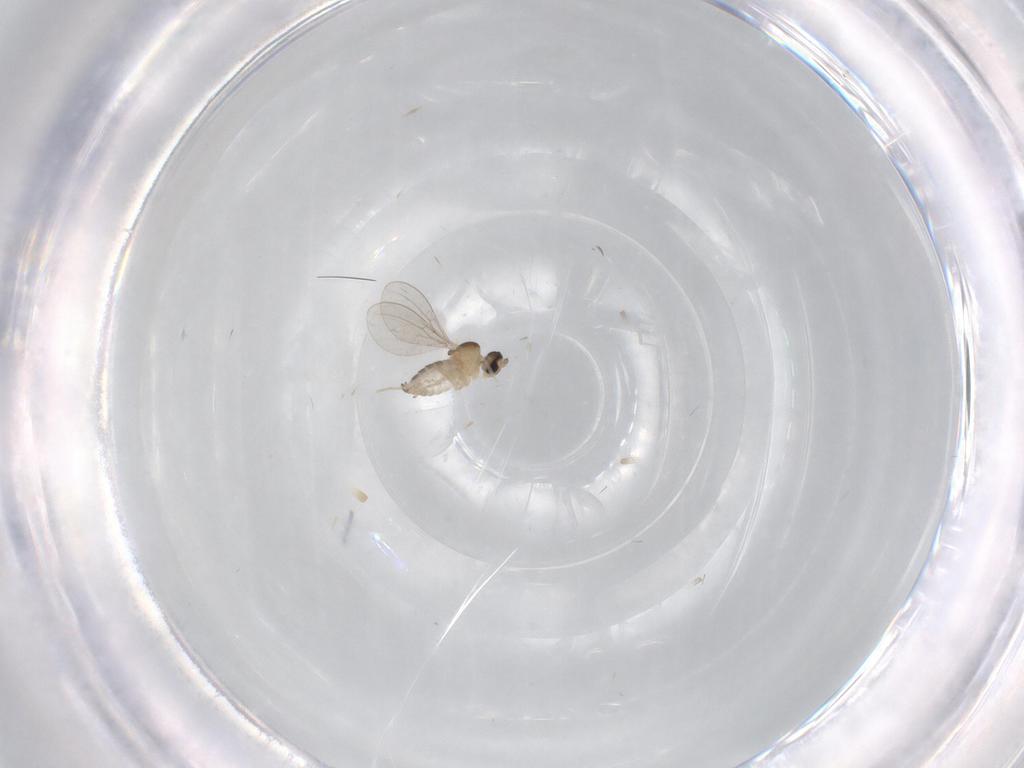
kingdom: Animalia
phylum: Arthropoda
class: Insecta
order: Diptera
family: Cecidomyiidae
